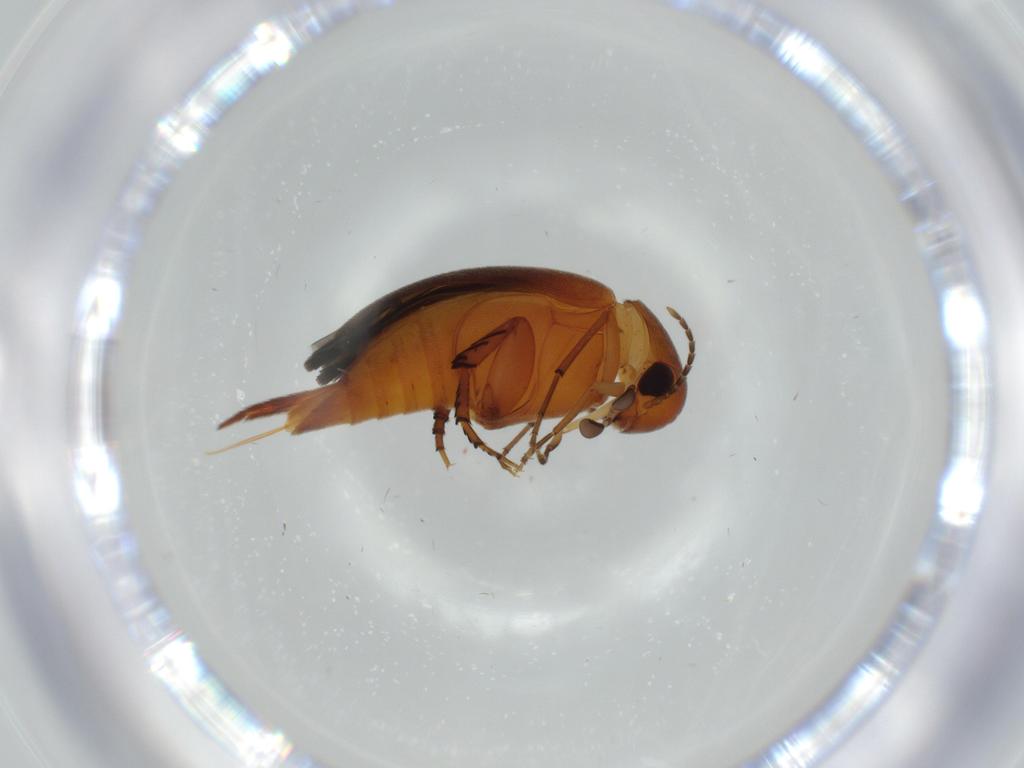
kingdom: Animalia
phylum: Arthropoda
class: Insecta
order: Coleoptera
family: Mordellidae
